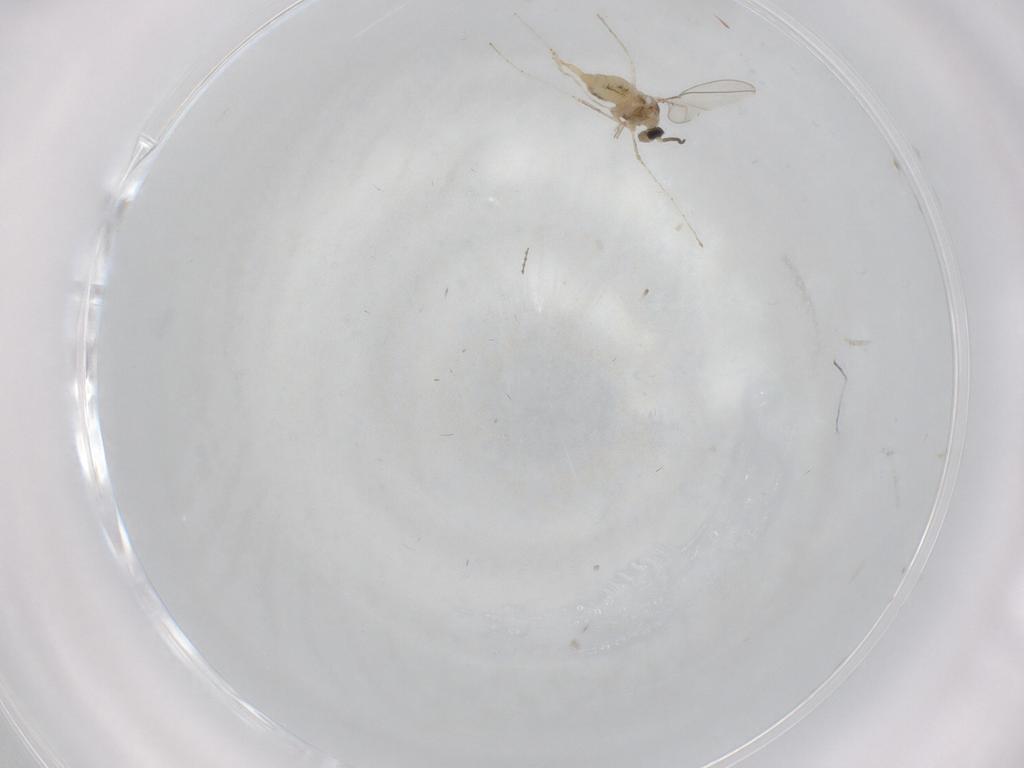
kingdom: Animalia
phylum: Arthropoda
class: Insecta
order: Diptera
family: Cecidomyiidae
